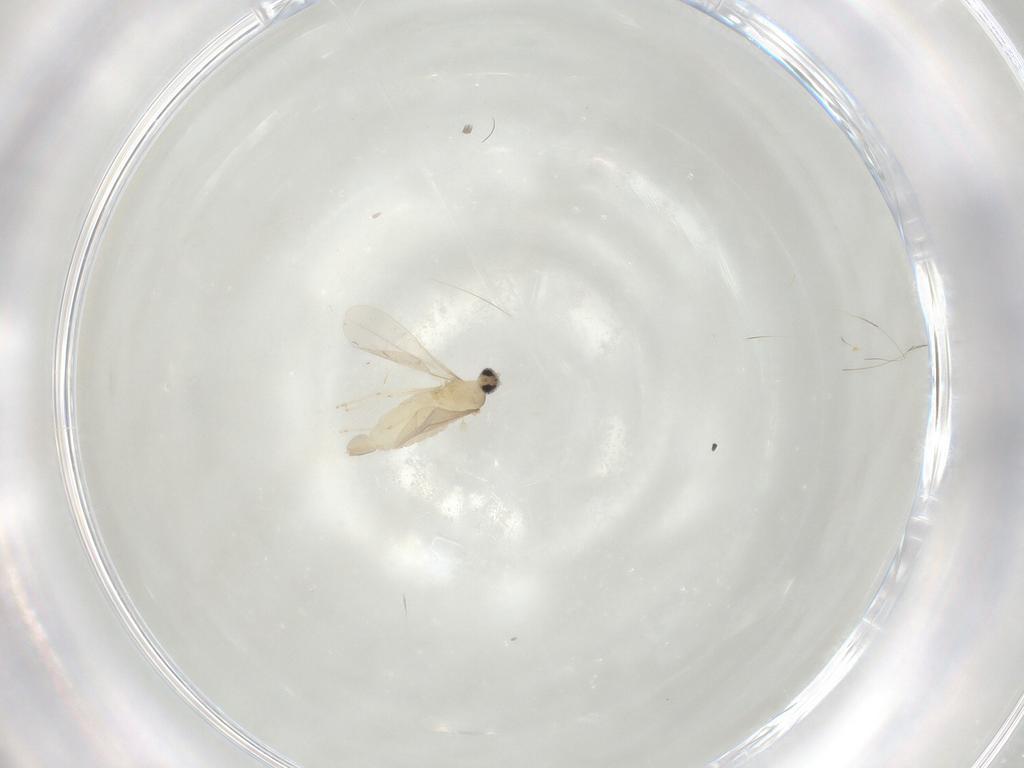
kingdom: Animalia
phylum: Arthropoda
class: Insecta
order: Diptera
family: Cecidomyiidae
